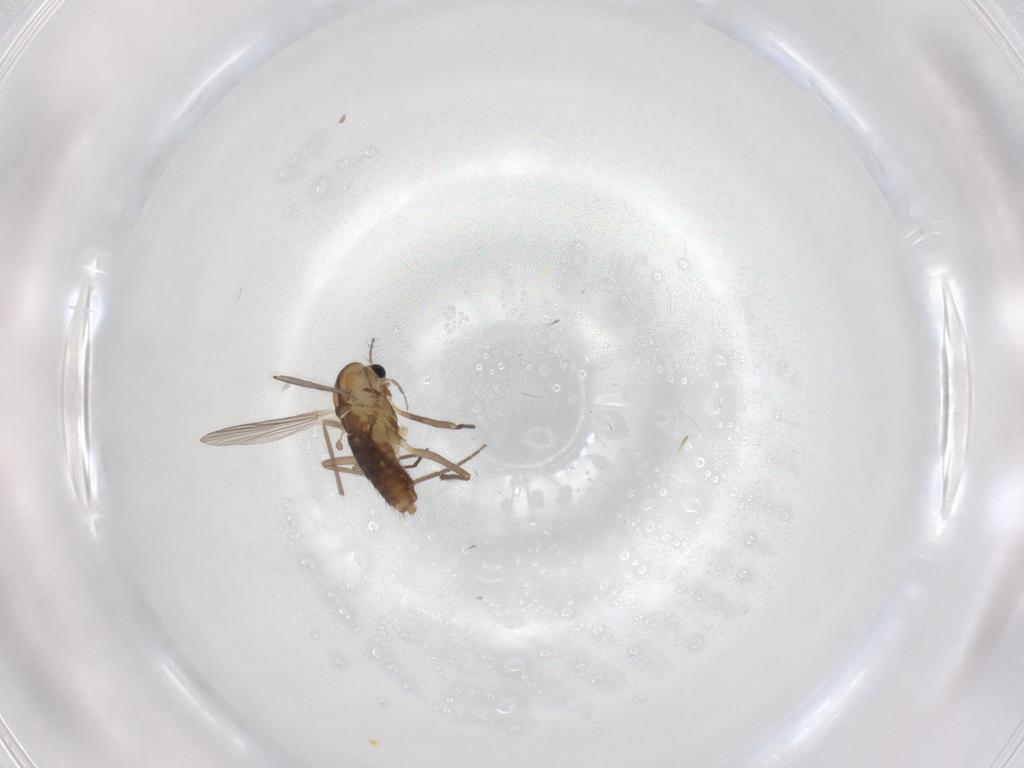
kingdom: Animalia
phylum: Arthropoda
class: Insecta
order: Diptera
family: Chironomidae
